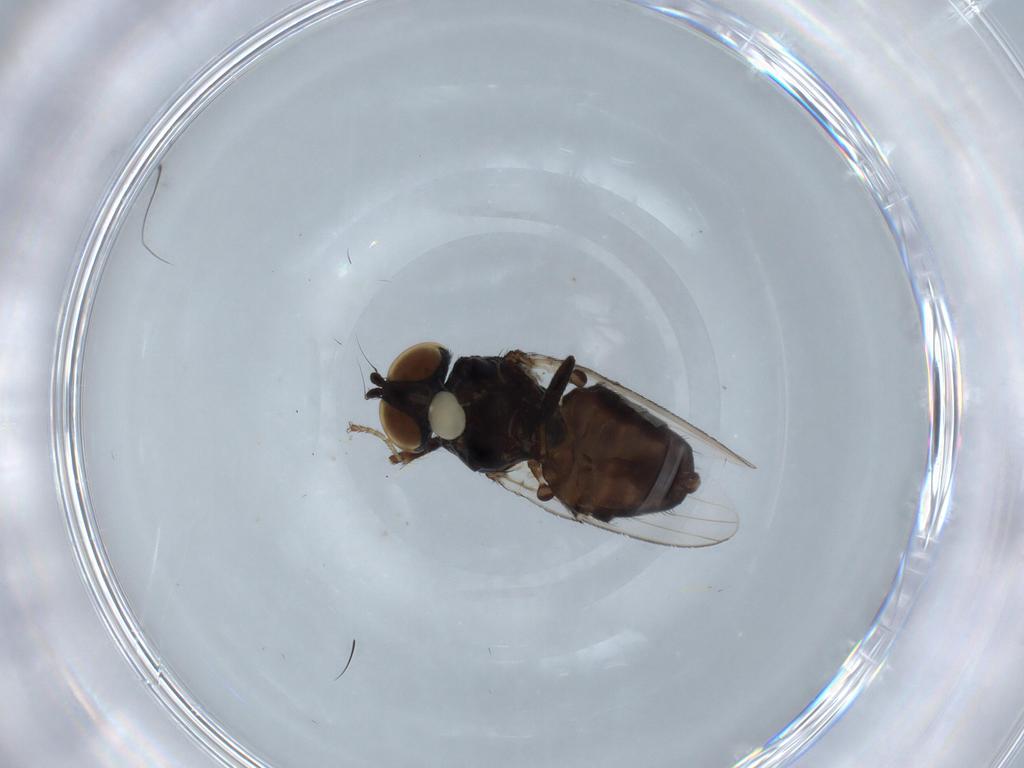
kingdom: Animalia
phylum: Arthropoda
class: Insecta
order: Diptera
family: Milichiidae
